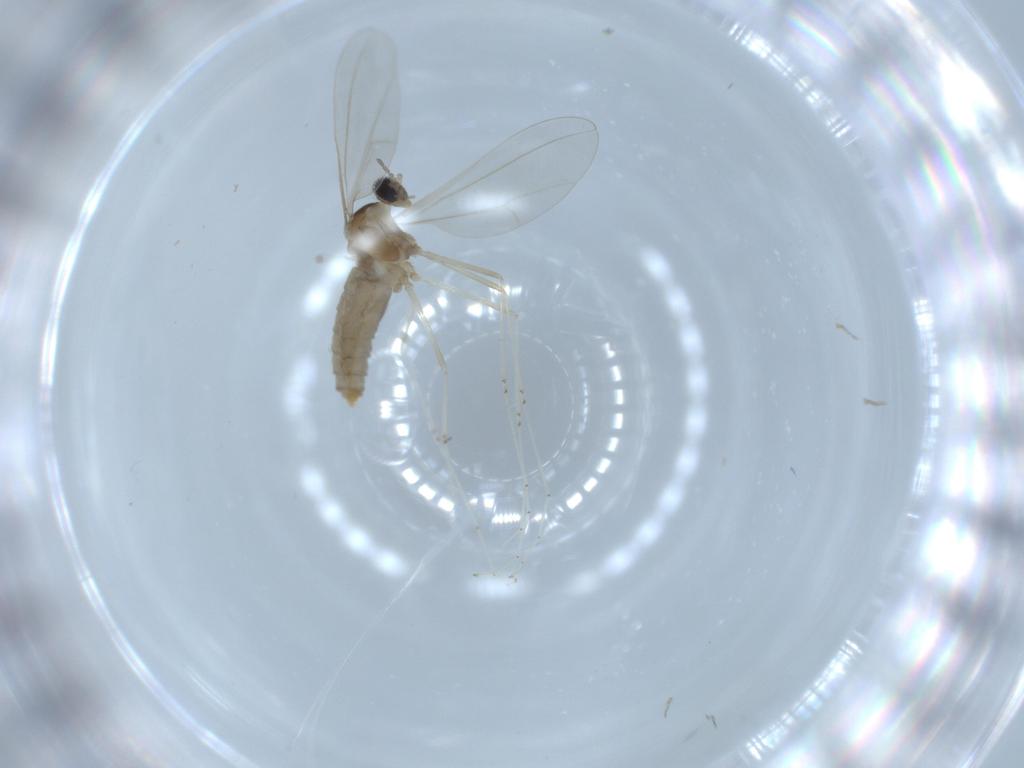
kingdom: Animalia
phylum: Arthropoda
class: Insecta
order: Diptera
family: Cecidomyiidae
